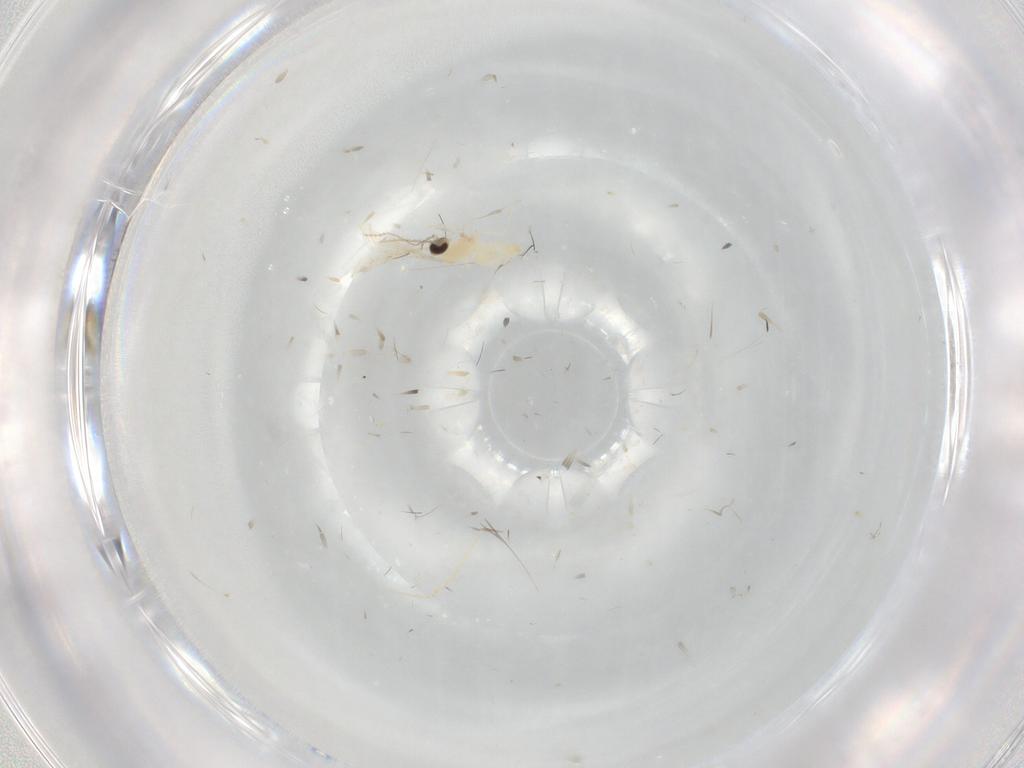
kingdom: Animalia
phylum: Arthropoda
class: Insecta
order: Diptera
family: Cecidomyiidae
